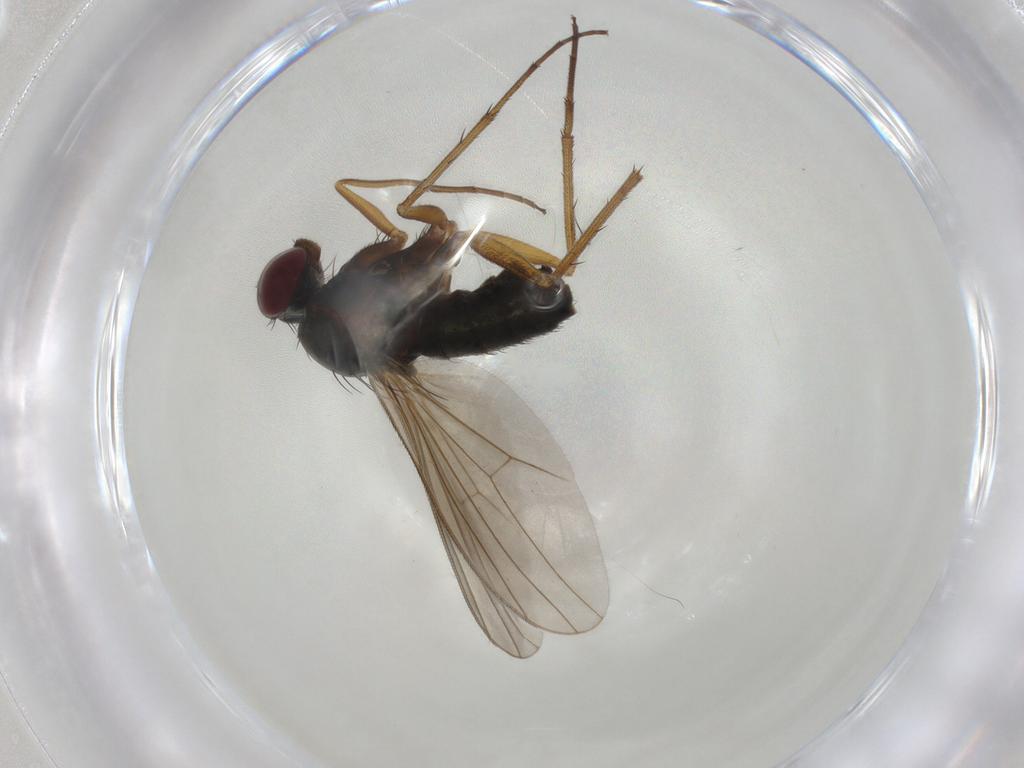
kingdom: Animalia
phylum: Arthropoda
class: Insecta
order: Diptera
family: Dolichopodidae
